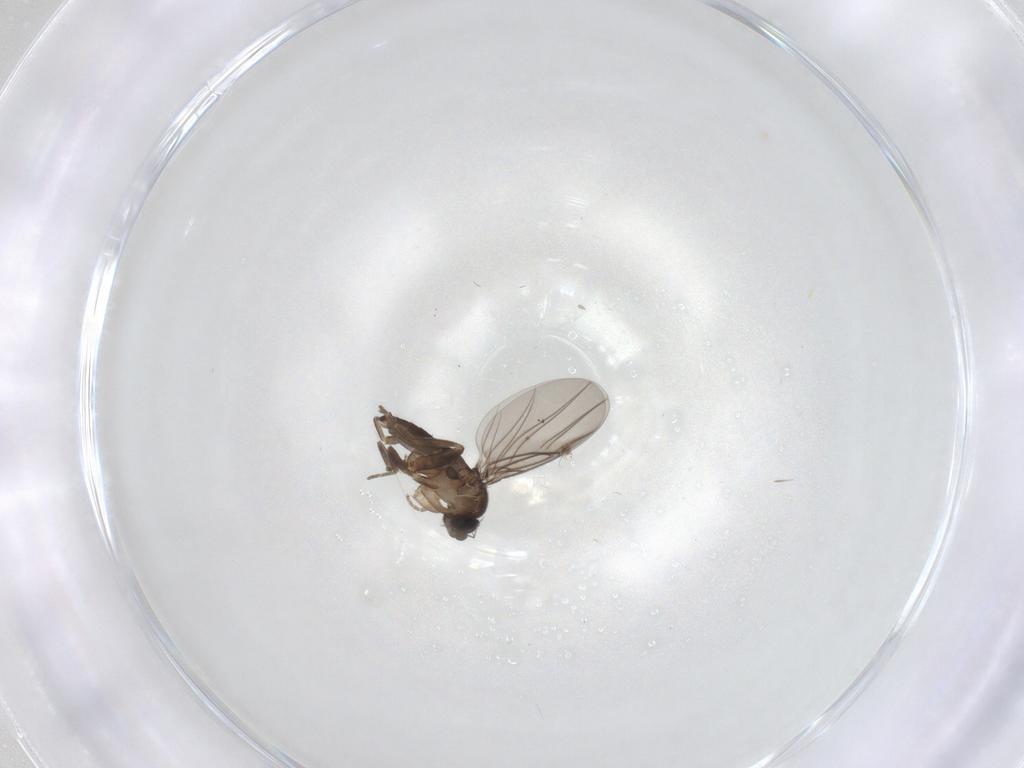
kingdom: Animalia
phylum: Arthropoda
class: Insecta
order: Diptera
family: Phoridae
